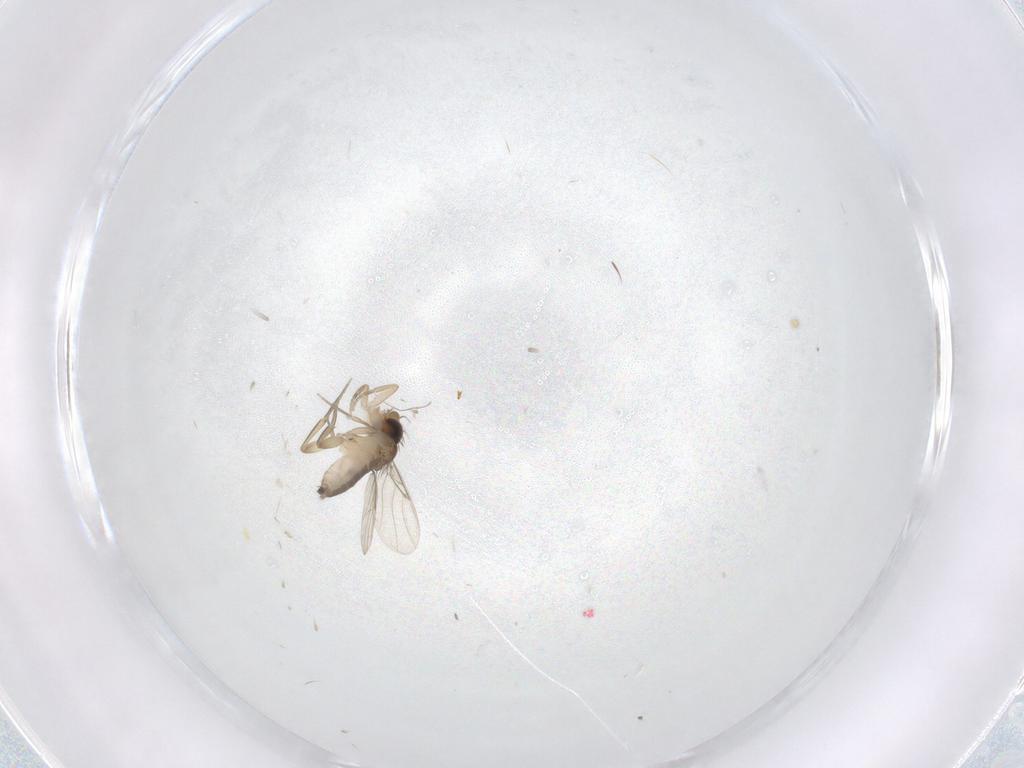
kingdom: Animalia
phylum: Arthropoda
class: Insecta
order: Diptera
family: Phoridae
